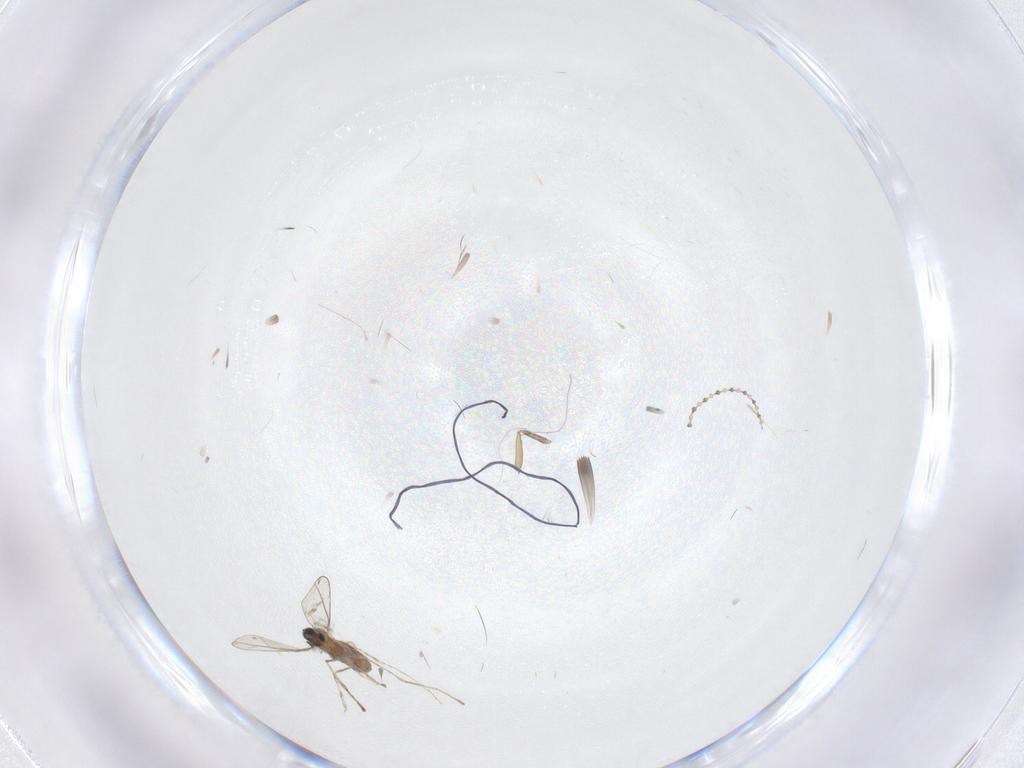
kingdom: Animalia
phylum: Arthropoda
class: Insecta
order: Diptera
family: Cecidomyiidae
